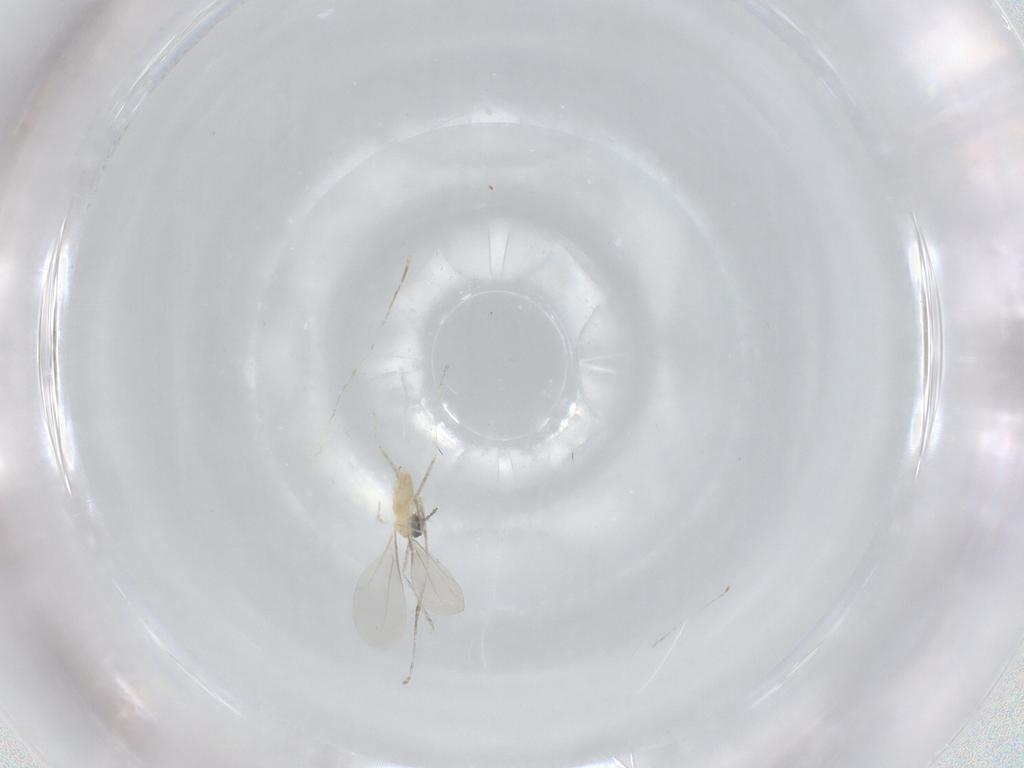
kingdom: Animalia
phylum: Arthropoda
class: Insecta
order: Diptera
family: Cecidomyiidae
